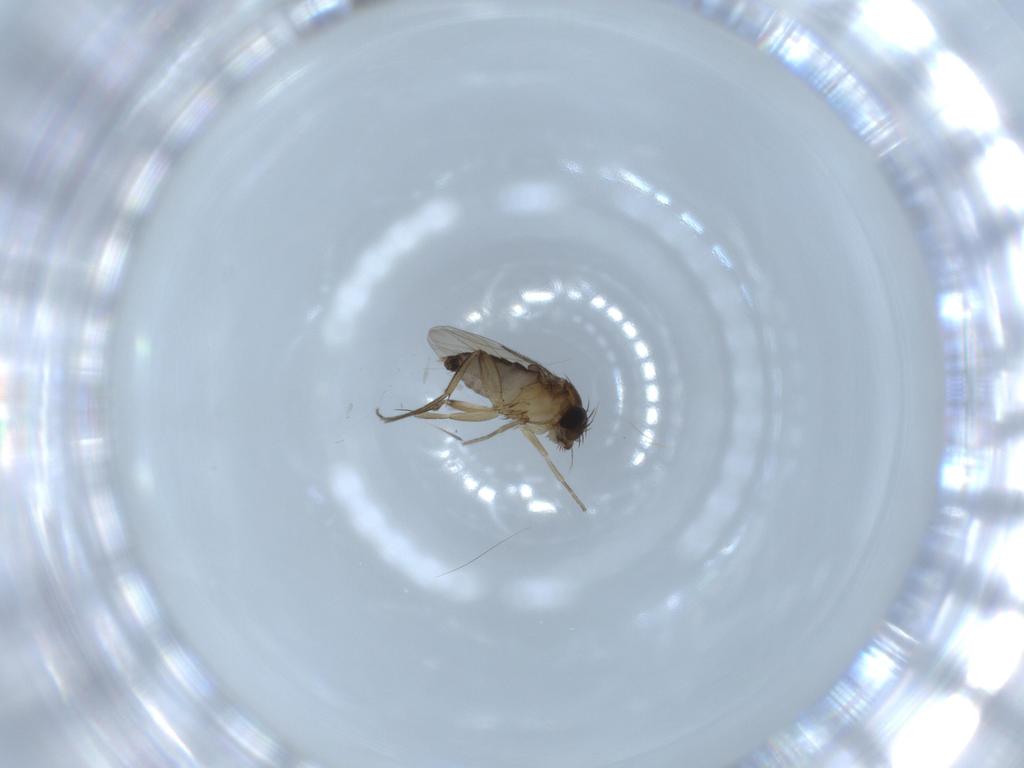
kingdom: Animalia
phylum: Arthropoda
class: Insecta
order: Diptera
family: Phoridae
